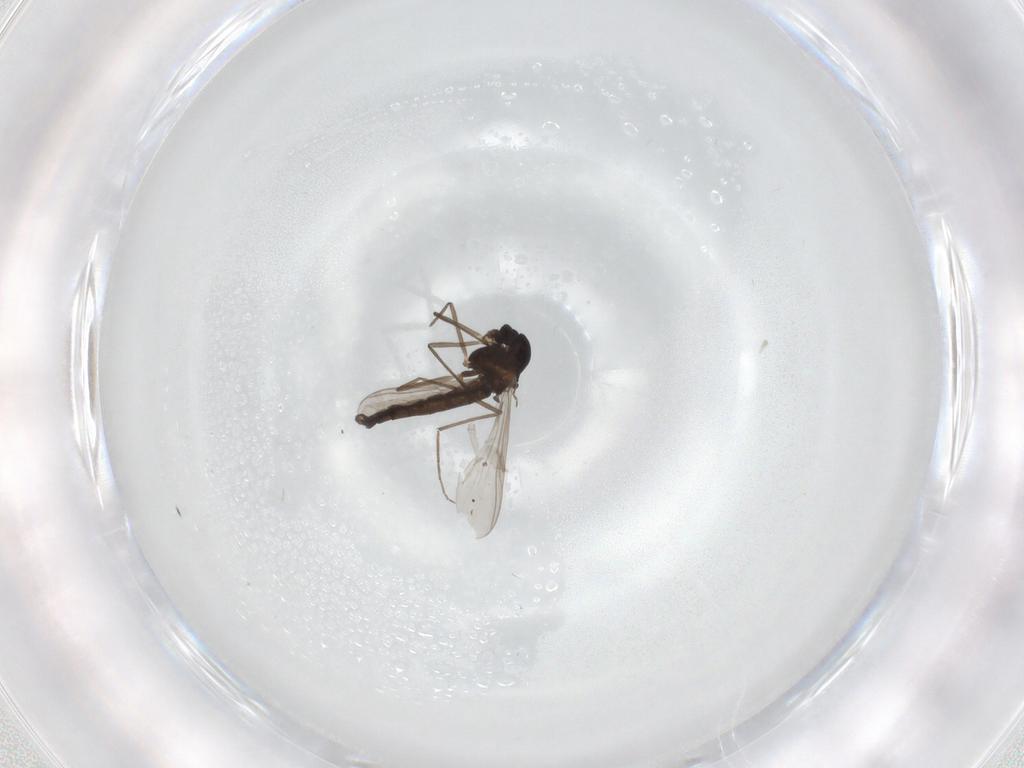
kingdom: Animalia
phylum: Arthropoda
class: Insecta
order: Diptera
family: Chironomidae
